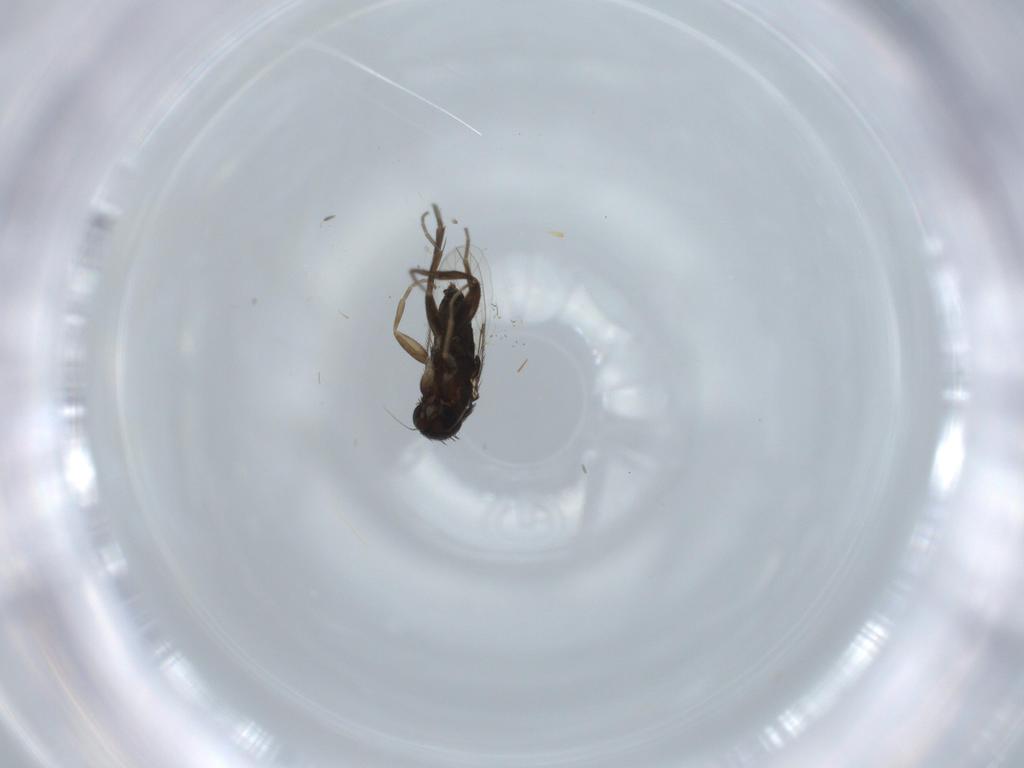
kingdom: Animalia
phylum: Arthropoda
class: Insecta
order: Diptera
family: Phoridae
